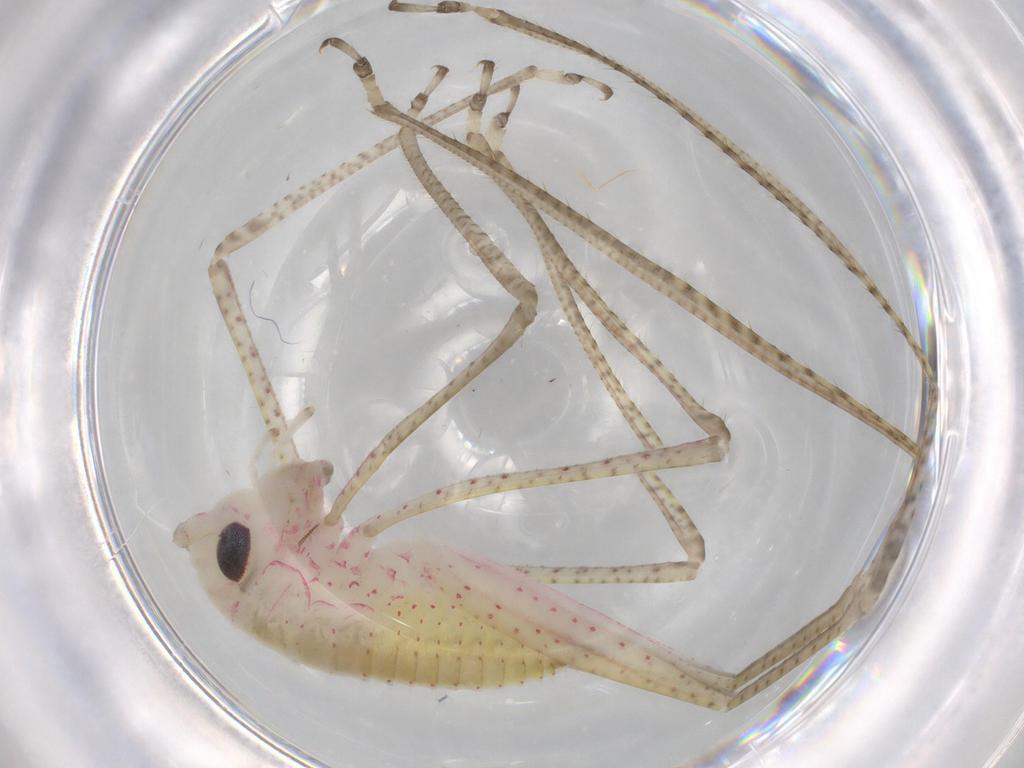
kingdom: Animalia
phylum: Arthropoda
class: Insecta
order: Orthoptera
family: Tettigoniidae
